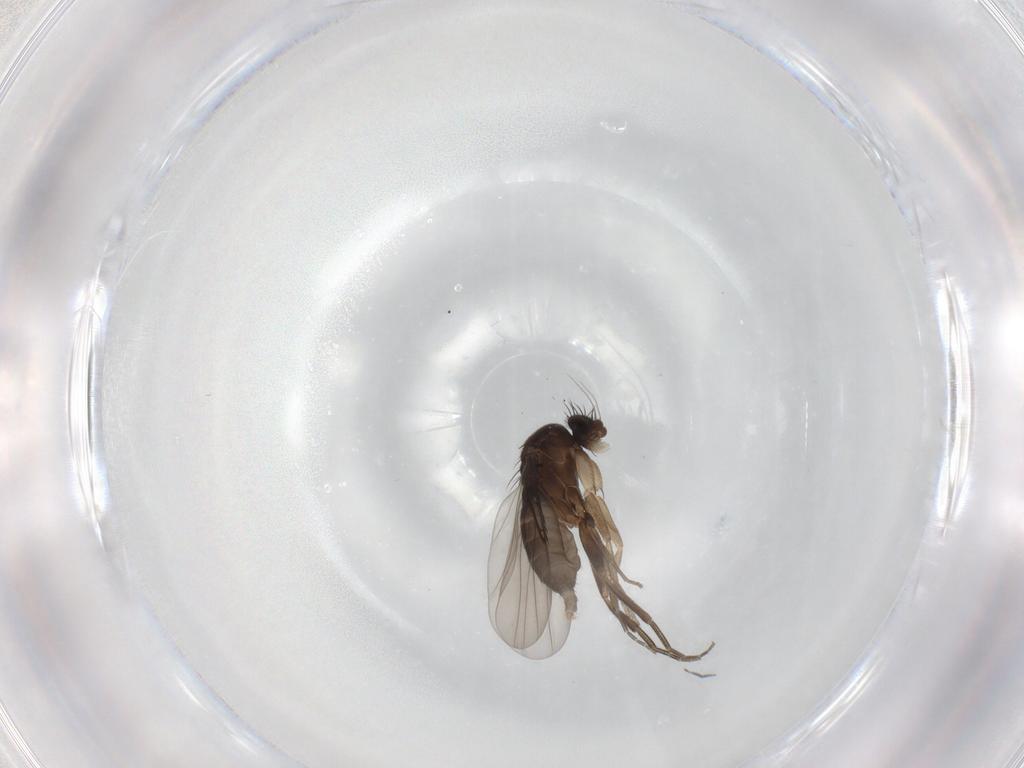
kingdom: Animalia
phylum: Arthropoda
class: Insecta
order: Diptera
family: Phoridae
